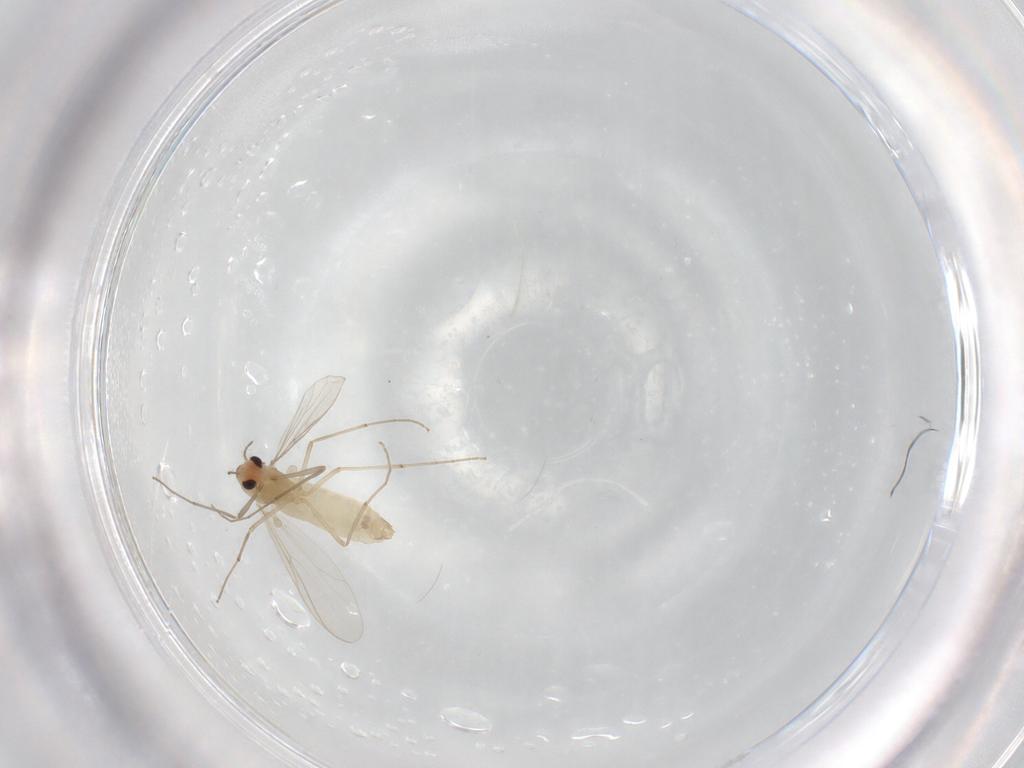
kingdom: Animalia
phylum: Arthropoda
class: Insecta
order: Diptera
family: Chironomidae
